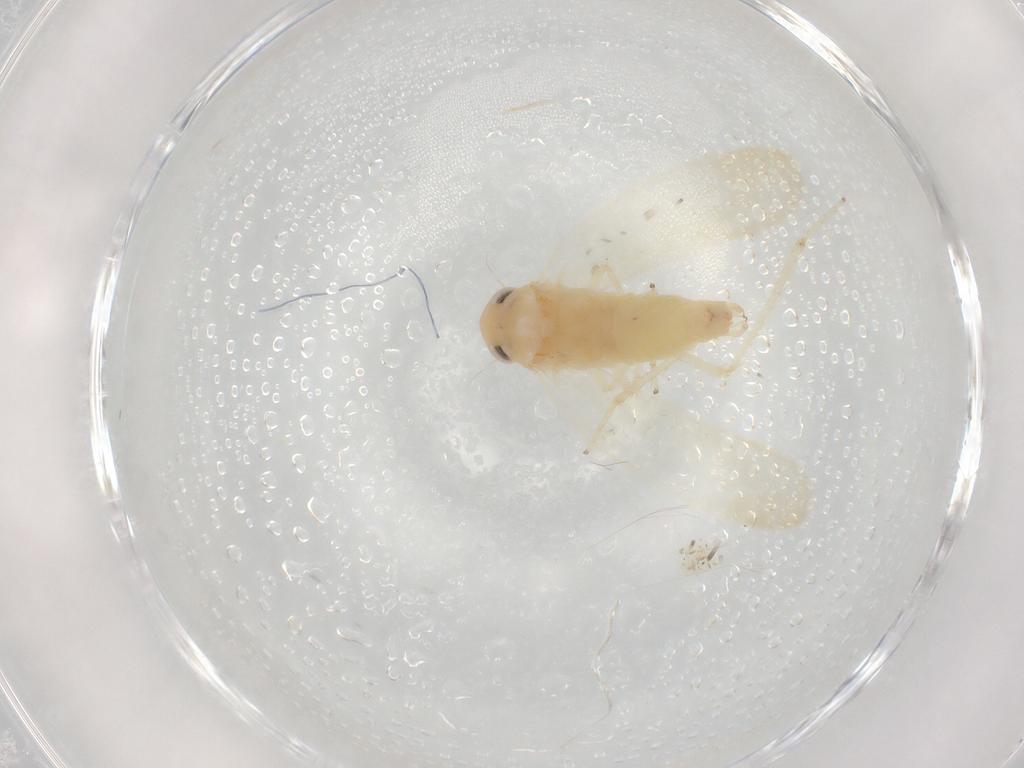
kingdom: Animalia
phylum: Arthropoda
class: Insecta
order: Hemiptera
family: Cicadellidae
